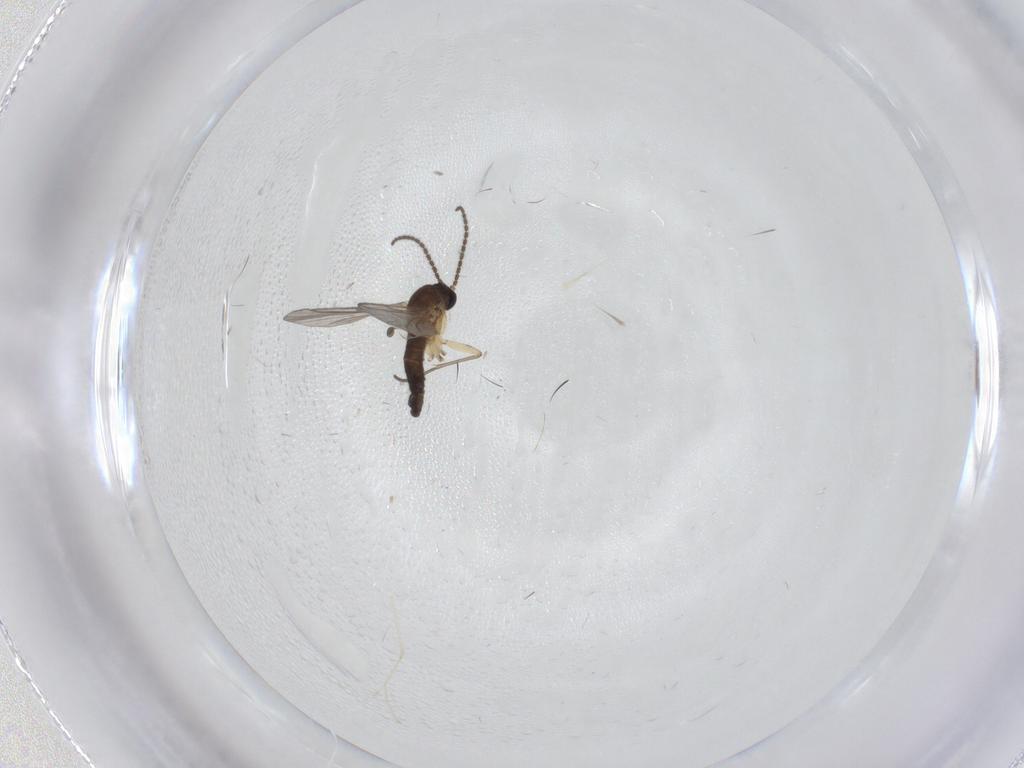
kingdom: Animalia
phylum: Arthropoda
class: Insecta
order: Diptera
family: Cecidomyiidae
